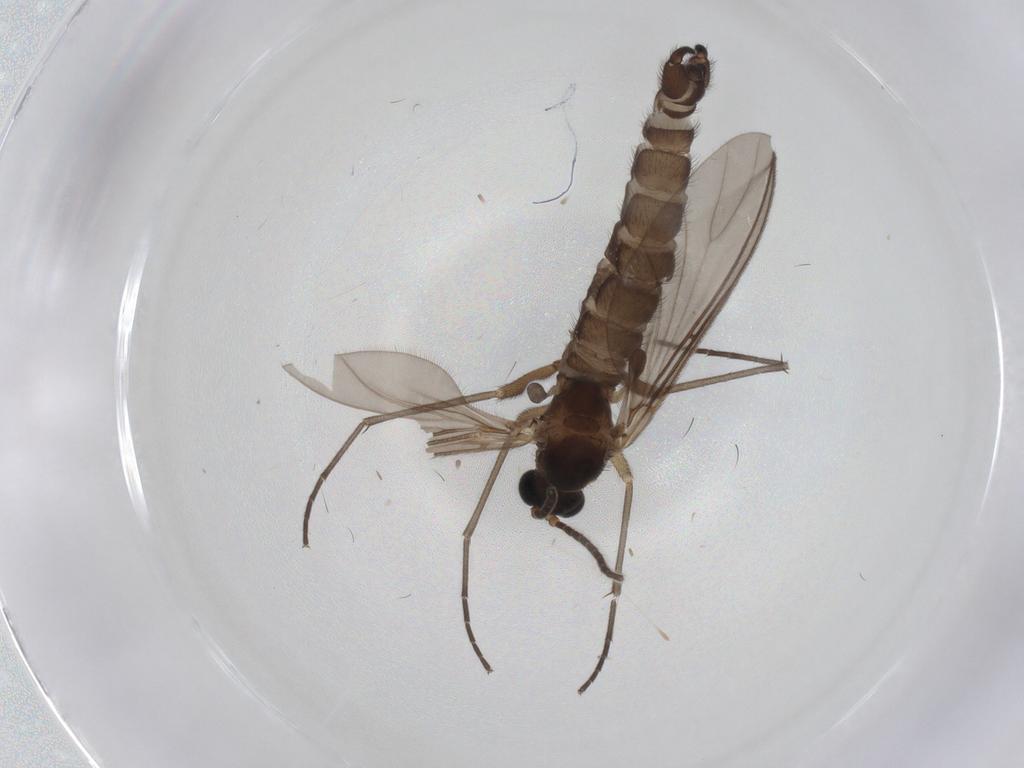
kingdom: Animalia
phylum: Arthropoda
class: Insecta
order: Diptera
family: Sciaridae
